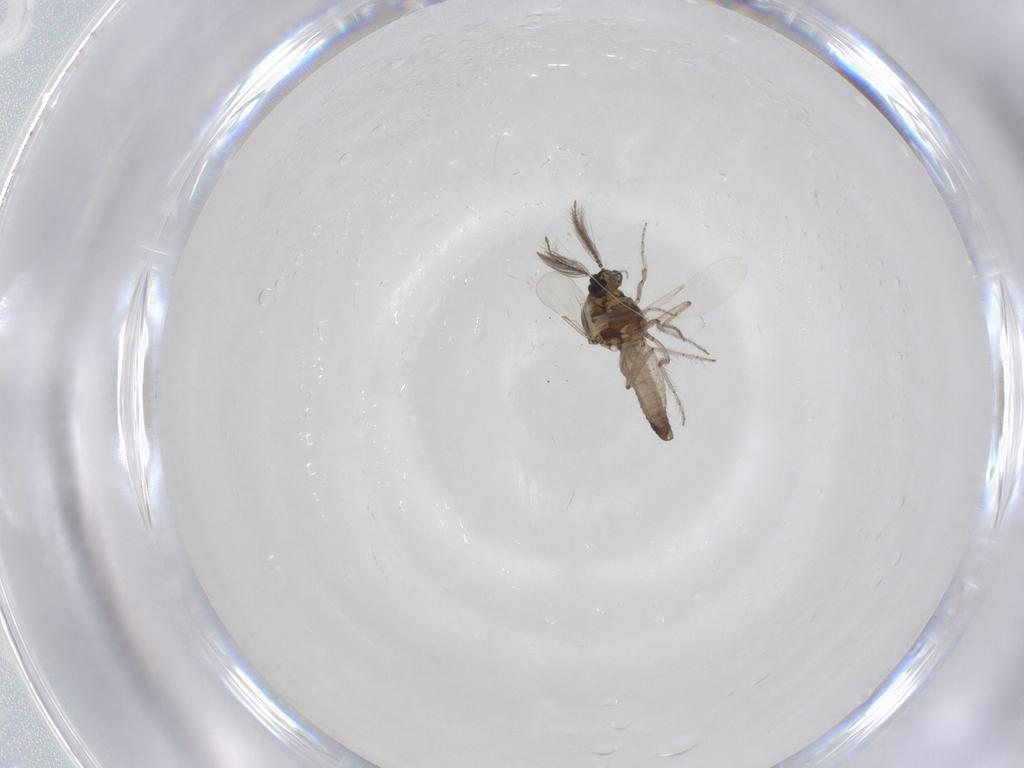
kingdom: Animalia
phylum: Arthropoda
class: Insecta
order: Diptera
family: Ceratopogonidae
